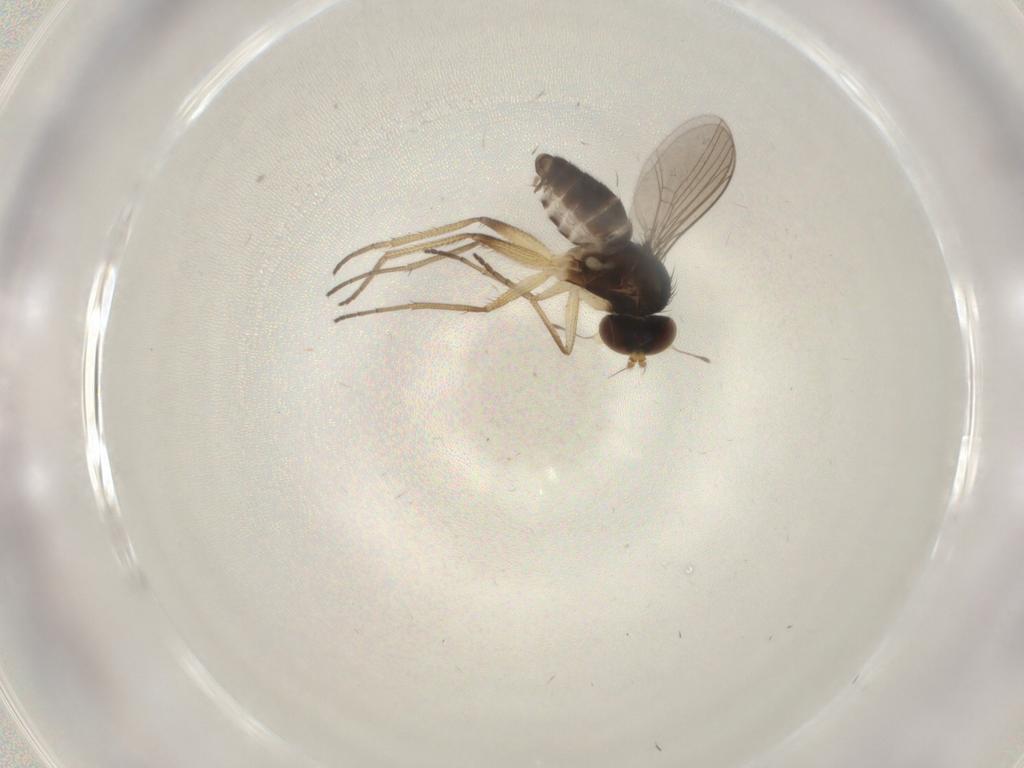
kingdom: Animalia
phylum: Arthropoda
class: Insecta
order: Diptera
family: Dolichopodidae
